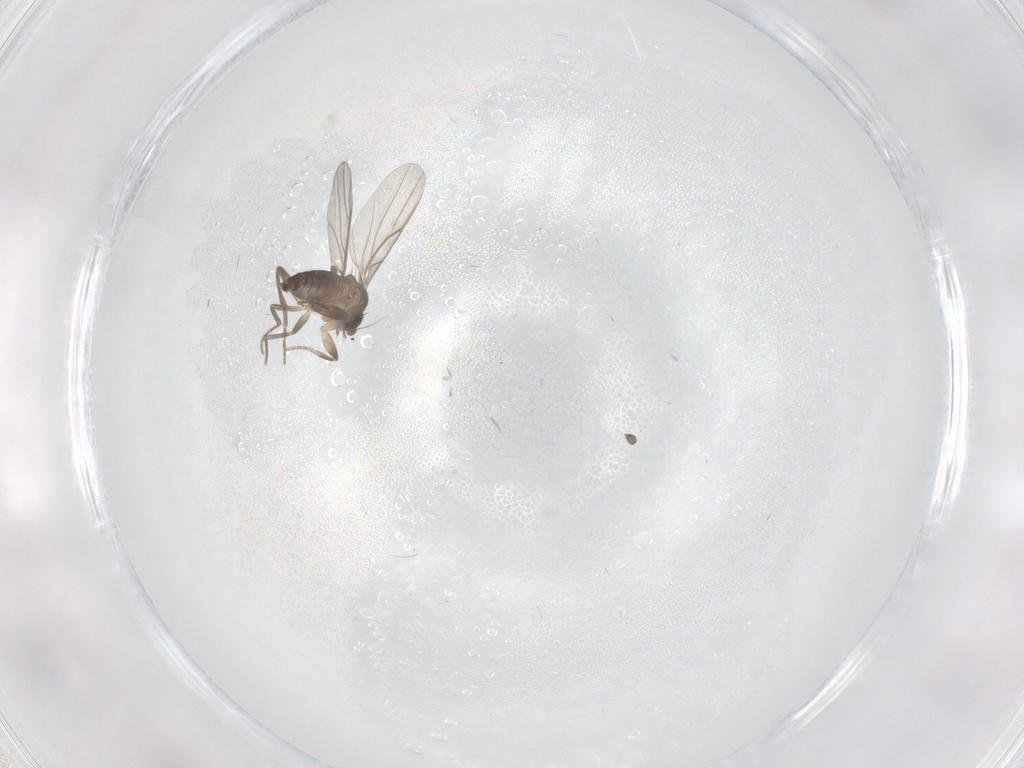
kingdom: Animalia
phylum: Arthropoda
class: Insecta
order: Diptera
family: Phoridae
